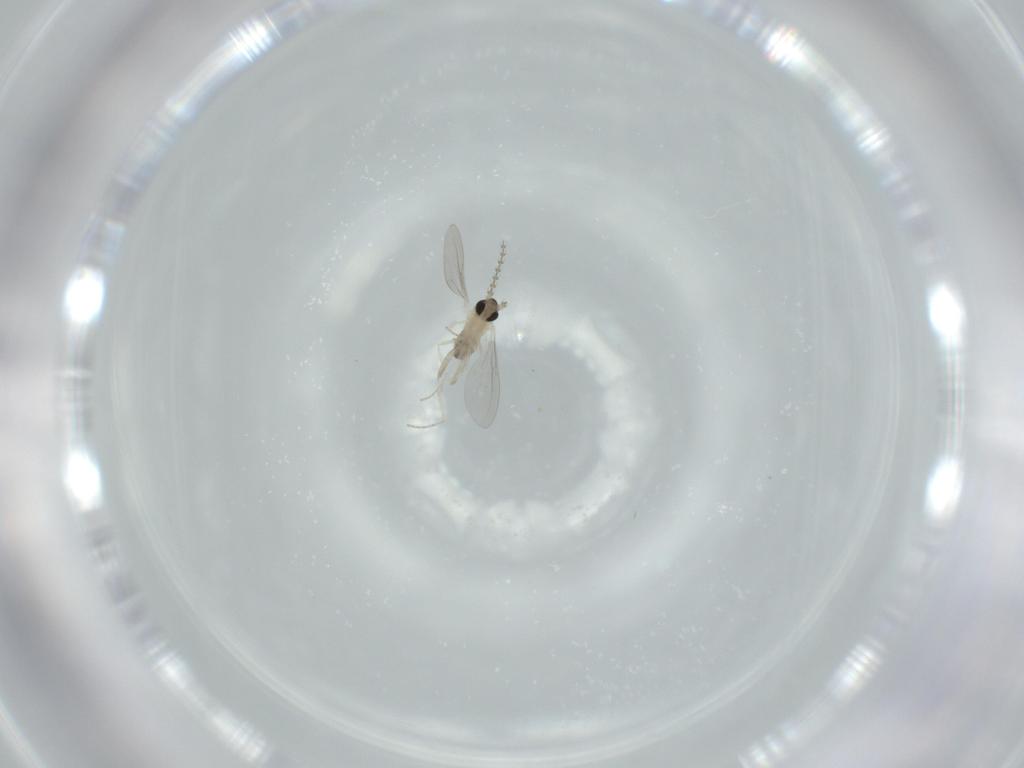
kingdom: Animalia
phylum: Arthropoda
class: Insecta
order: Diptera
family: Cecidomyiidae
